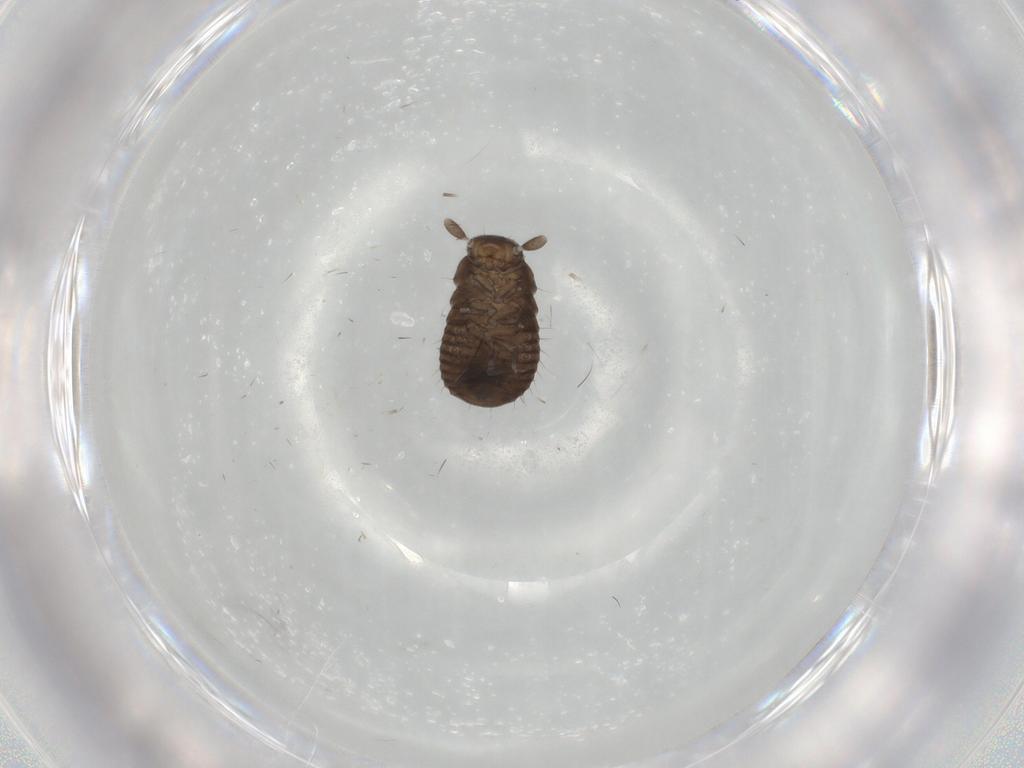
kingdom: Animalia
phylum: Arthropoda
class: Insecta
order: Coleoptera
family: Tenebrionidae
